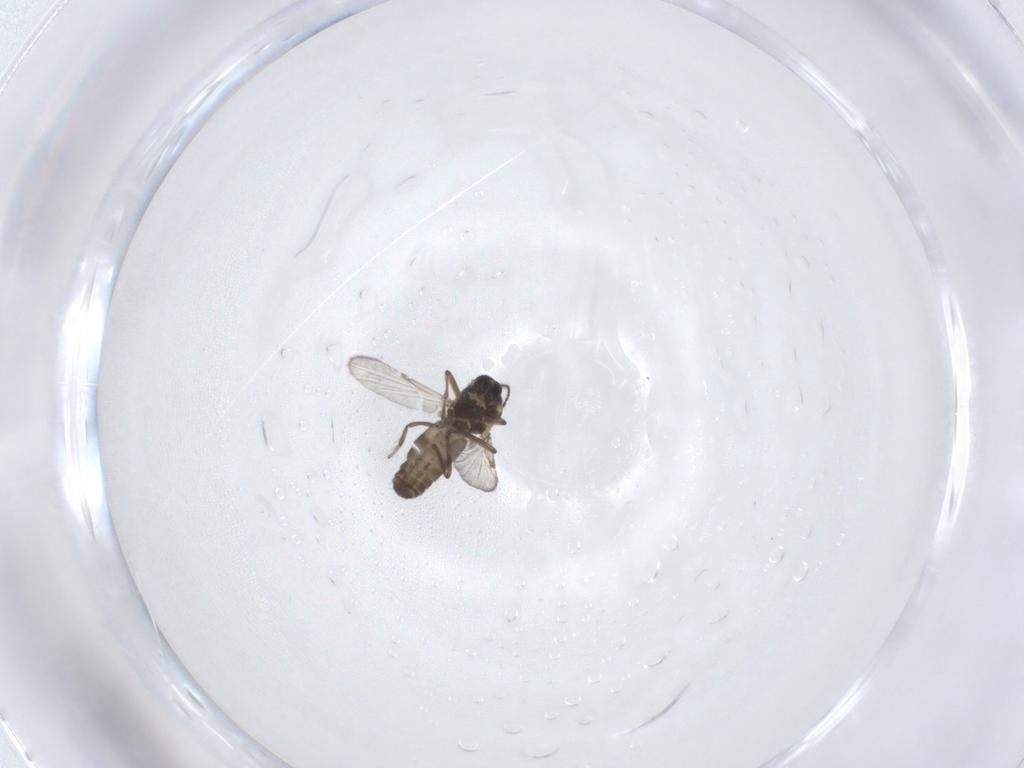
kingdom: Animalia
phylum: Arthropoda
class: Insecta
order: Diptera
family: Ceratopogonidae
